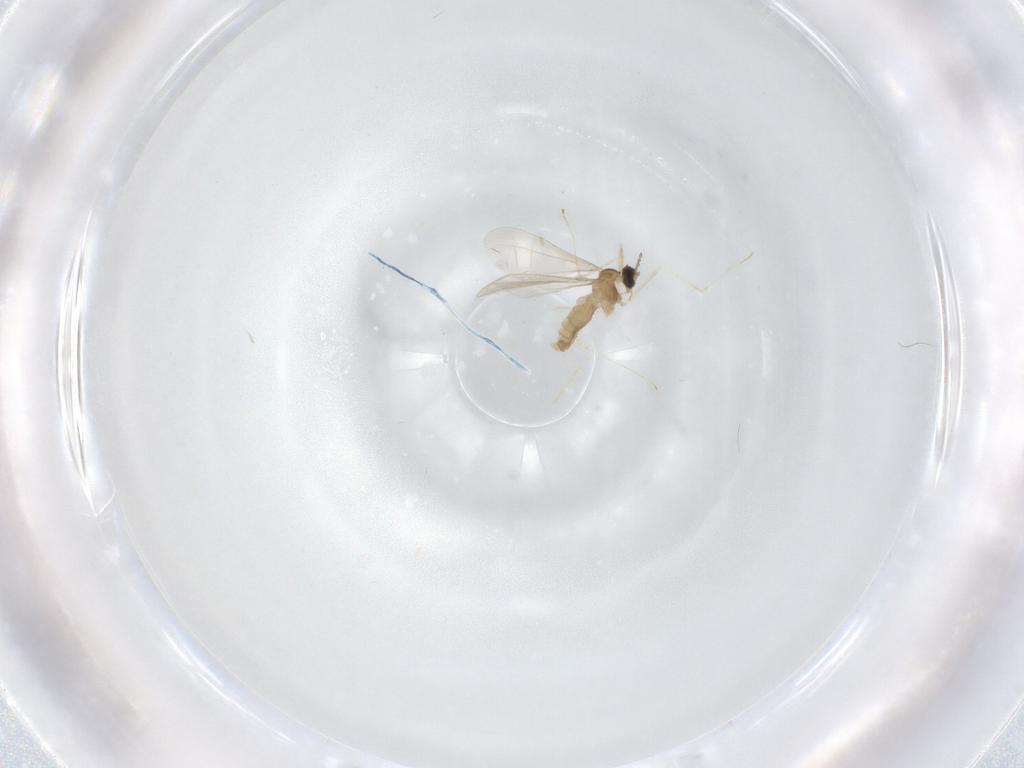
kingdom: Animalia
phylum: Arthropoda
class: Insecta
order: Diptera
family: Cecidomyiidae
